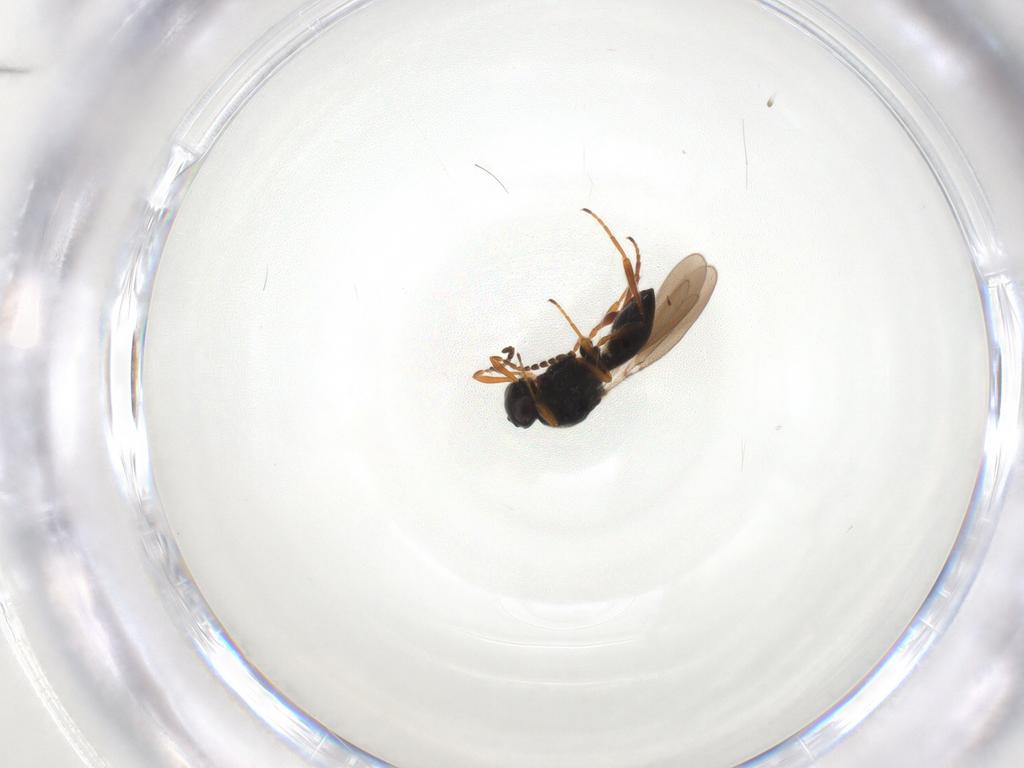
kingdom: Animalia
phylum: Arthropoda
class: Insecta
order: Hymenoptera
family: Platygastridae
